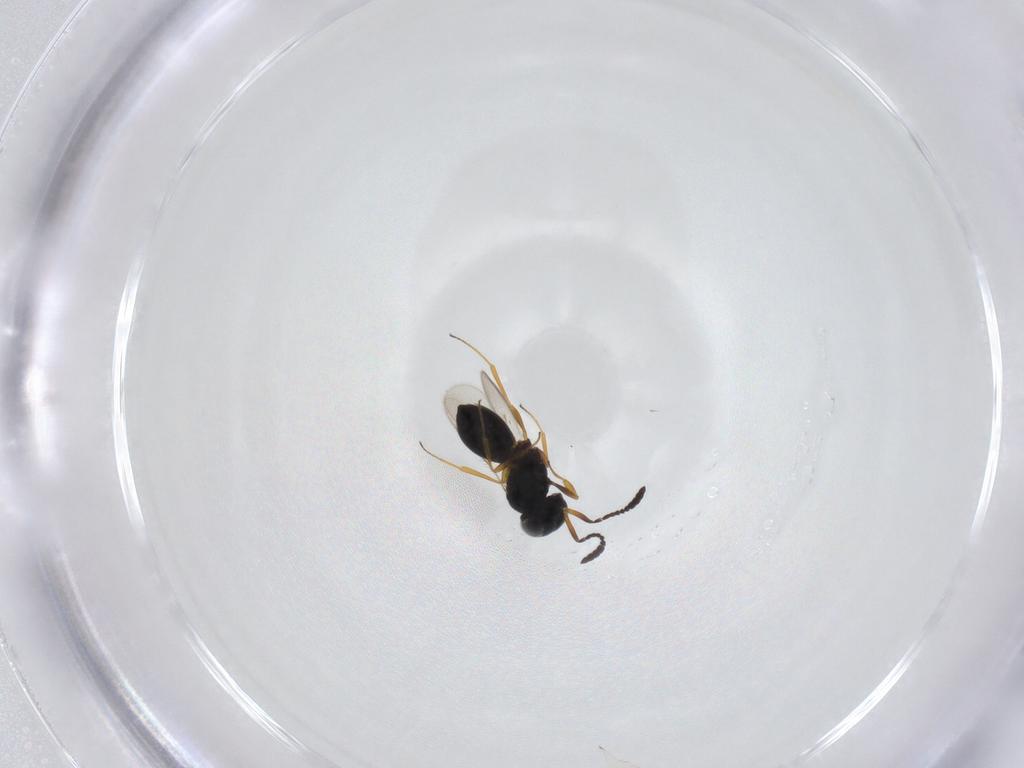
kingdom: Animalia
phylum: Arthropoda
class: Insecta
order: Hymenoptera
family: Scelionidae
